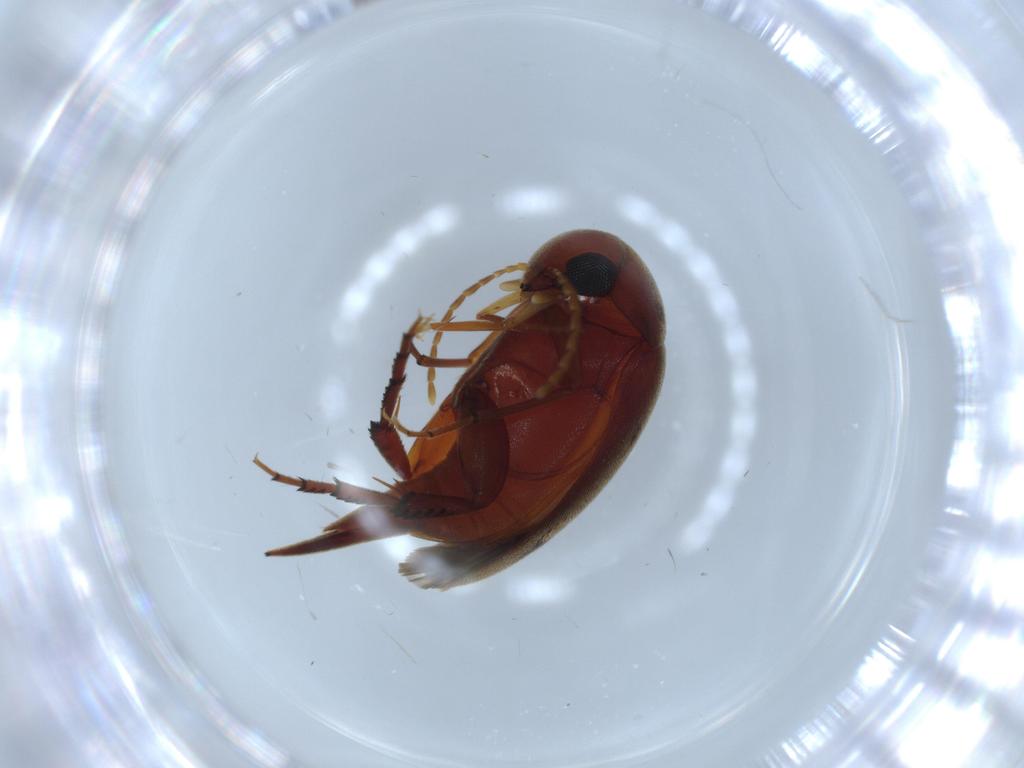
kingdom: Animalia
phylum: Arthropoda
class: Insecta
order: Coleoptera
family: Nitidulidae
